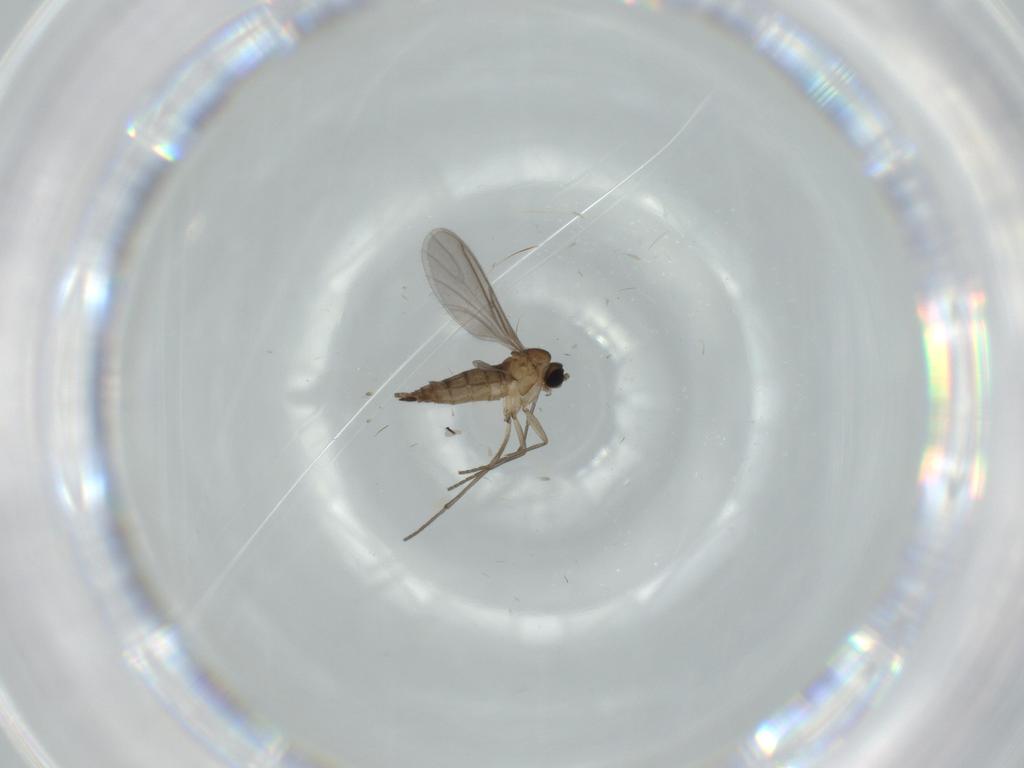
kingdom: Animalia
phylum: Arthropoda
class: Insecta
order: Diptera
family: Sciaridae
